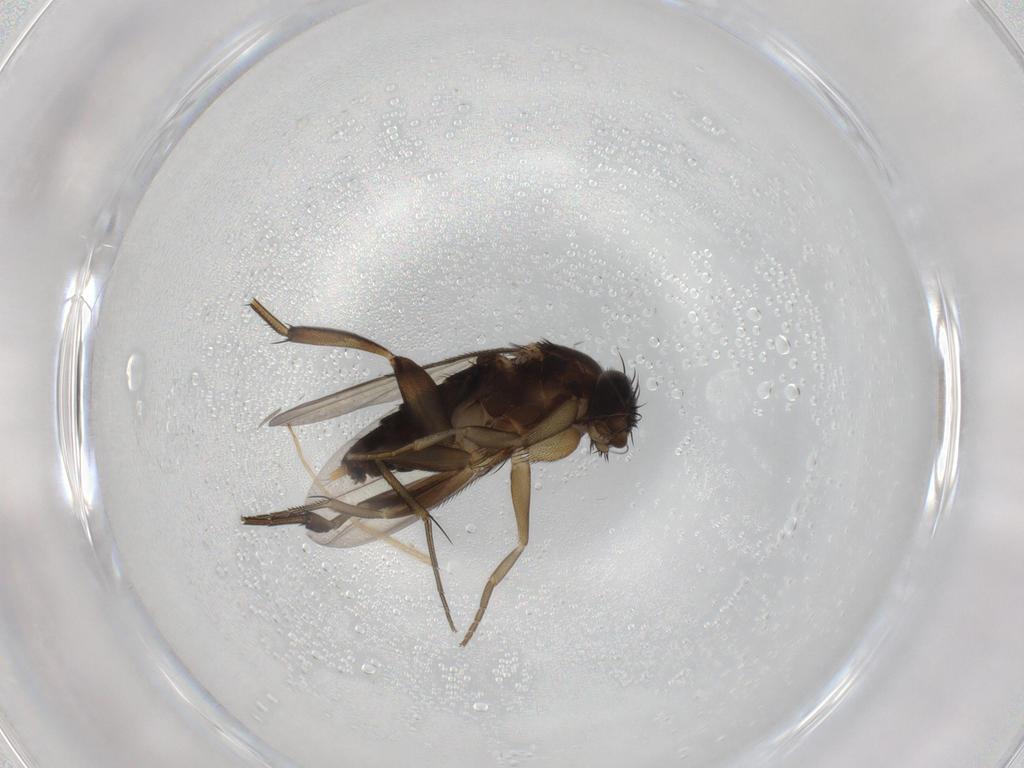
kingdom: Animalia
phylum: Arthropoda
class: Insecta
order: Diptera
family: Phoridae
